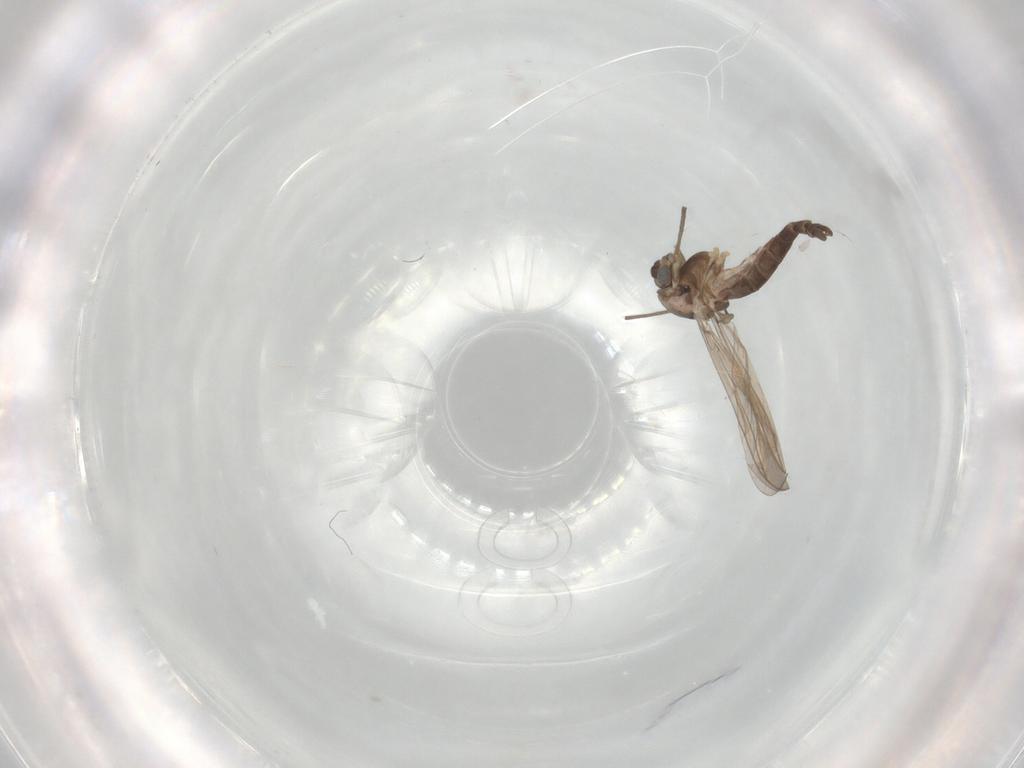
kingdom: Animalia
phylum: Arthropoda
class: Insecta
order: Diptera
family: Chironomidae
